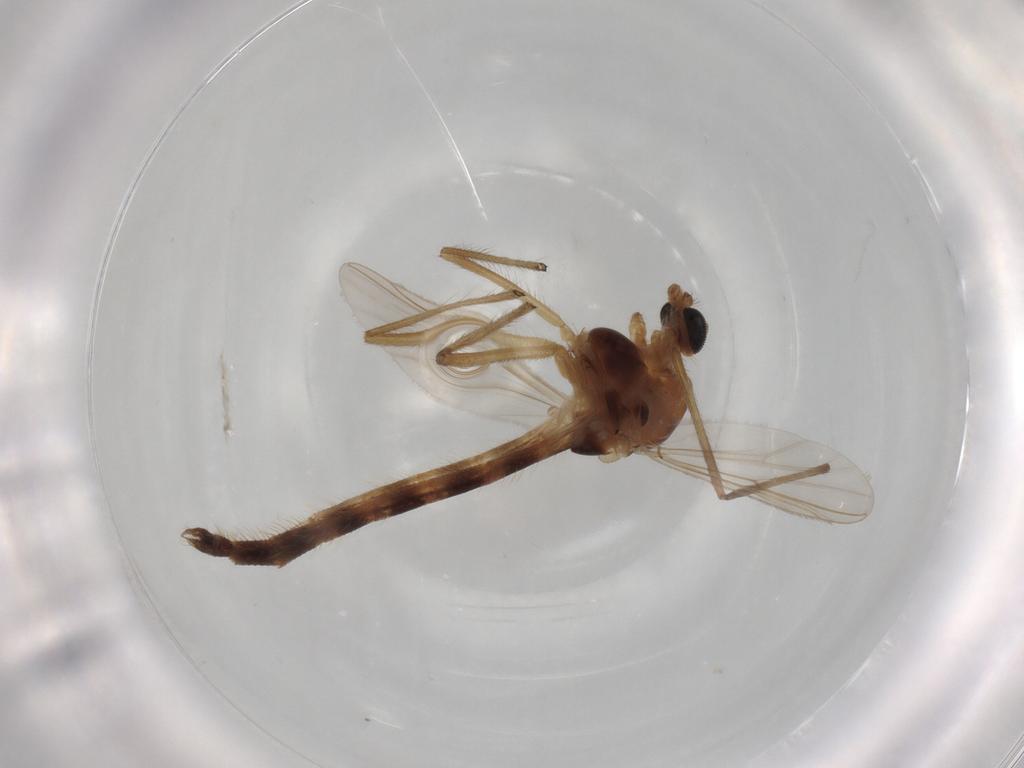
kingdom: Animalia
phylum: Arthropoda
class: Insecta
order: Diptera
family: Chironomidae
